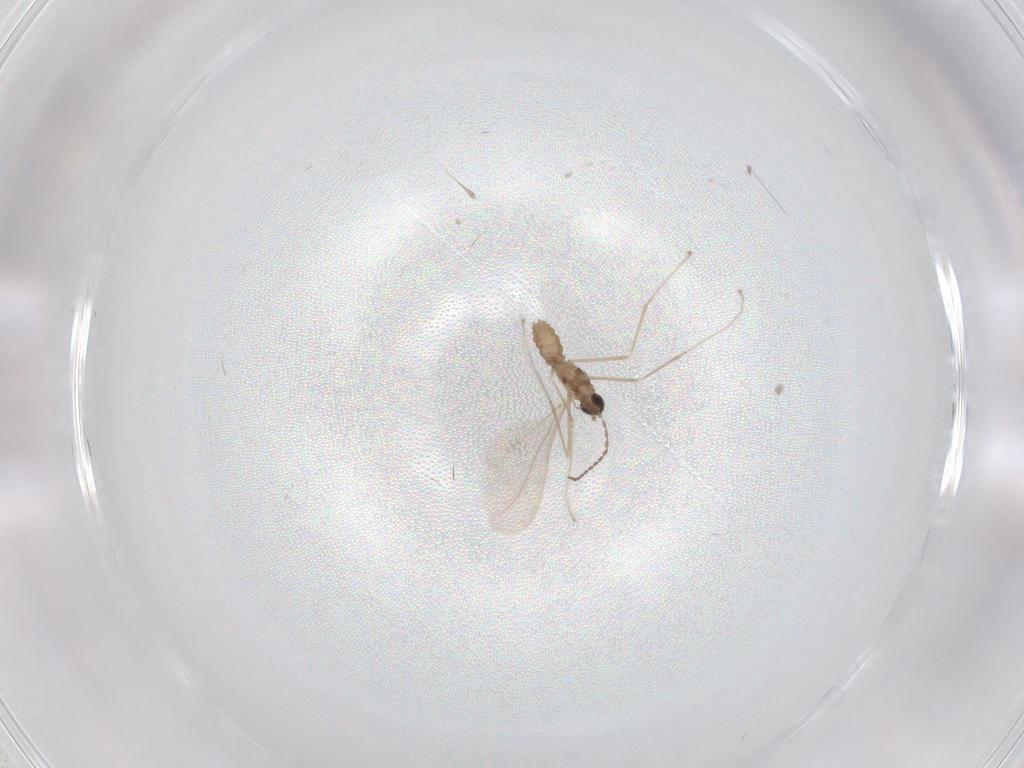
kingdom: Animalia
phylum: Arthropoda
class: Insecta
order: Diptera
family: Cecidomyiidae
